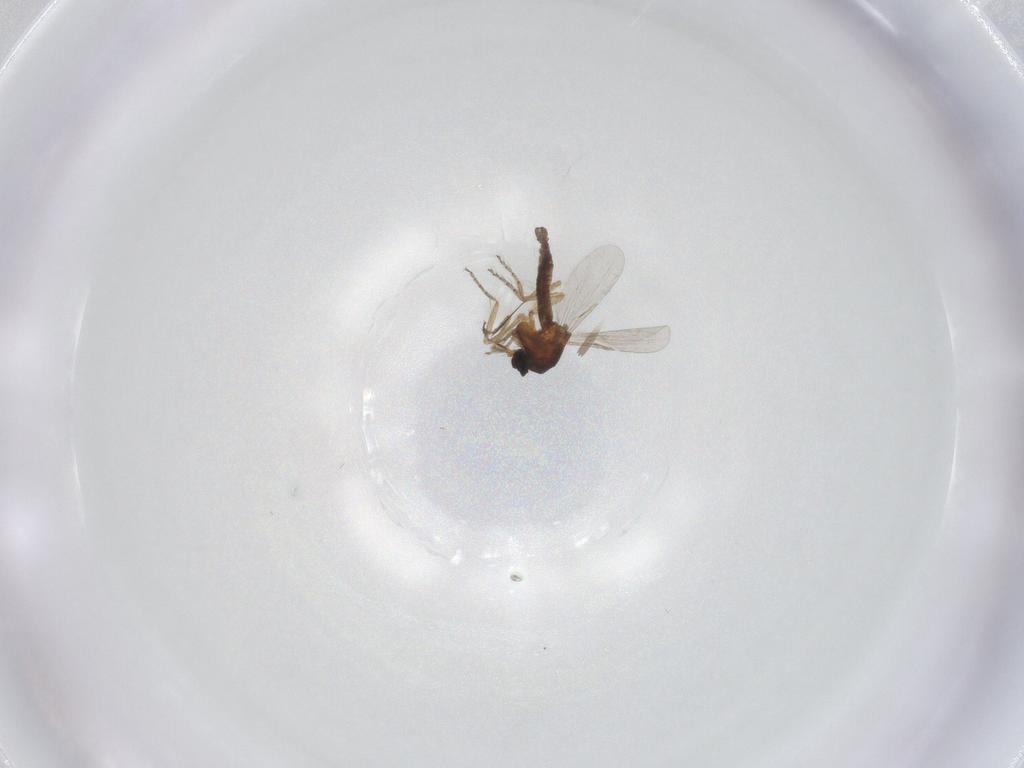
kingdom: Animalia
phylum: Arthropoda
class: Insecta
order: Diptera
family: Ceratopogonidae
